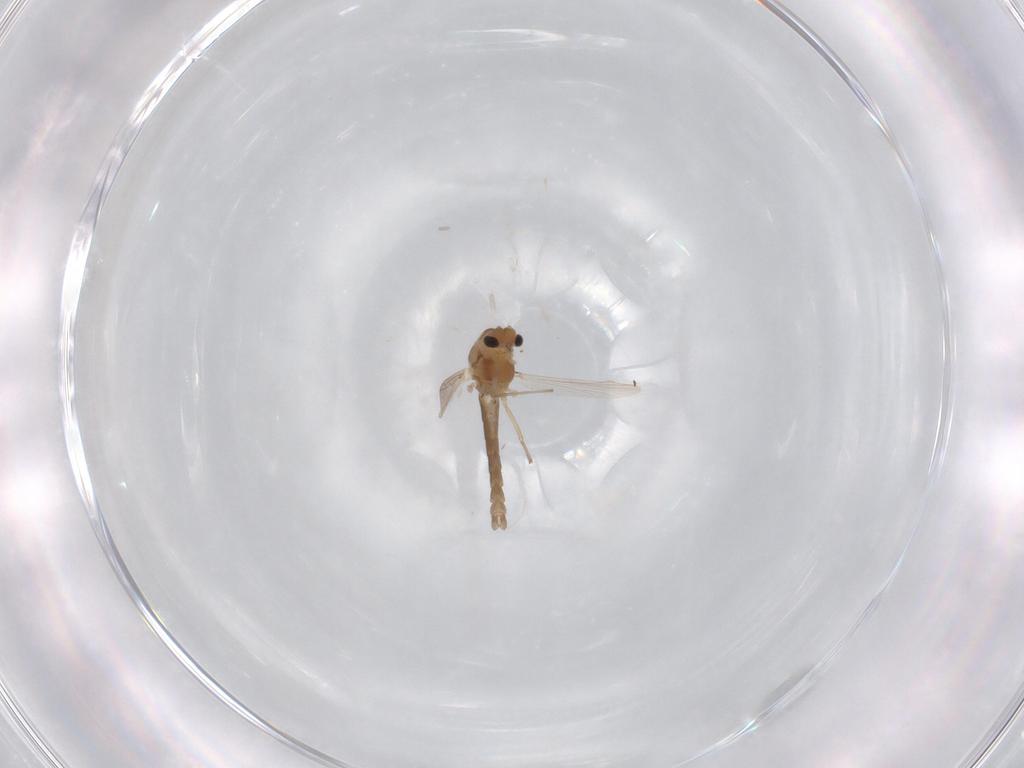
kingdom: Animalia
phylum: Arthropoda
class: Insecta
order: Diptera
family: Chironomidae
